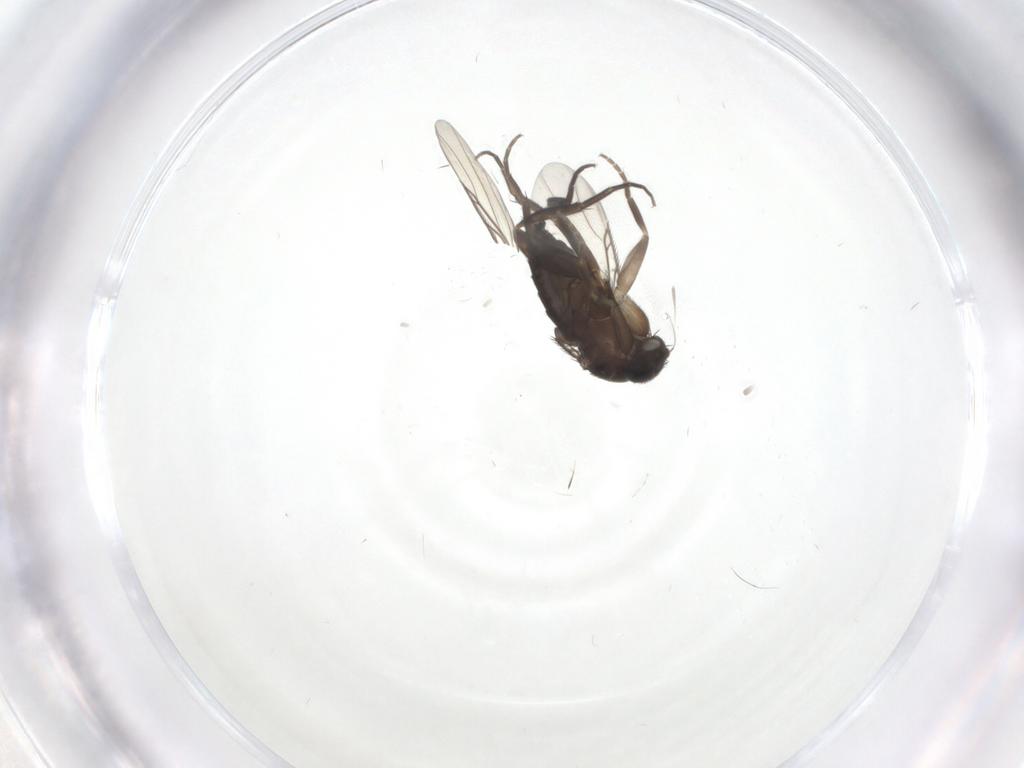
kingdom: Animalia
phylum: Arthropoda
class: Insecta
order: Diptera
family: Phoridae
